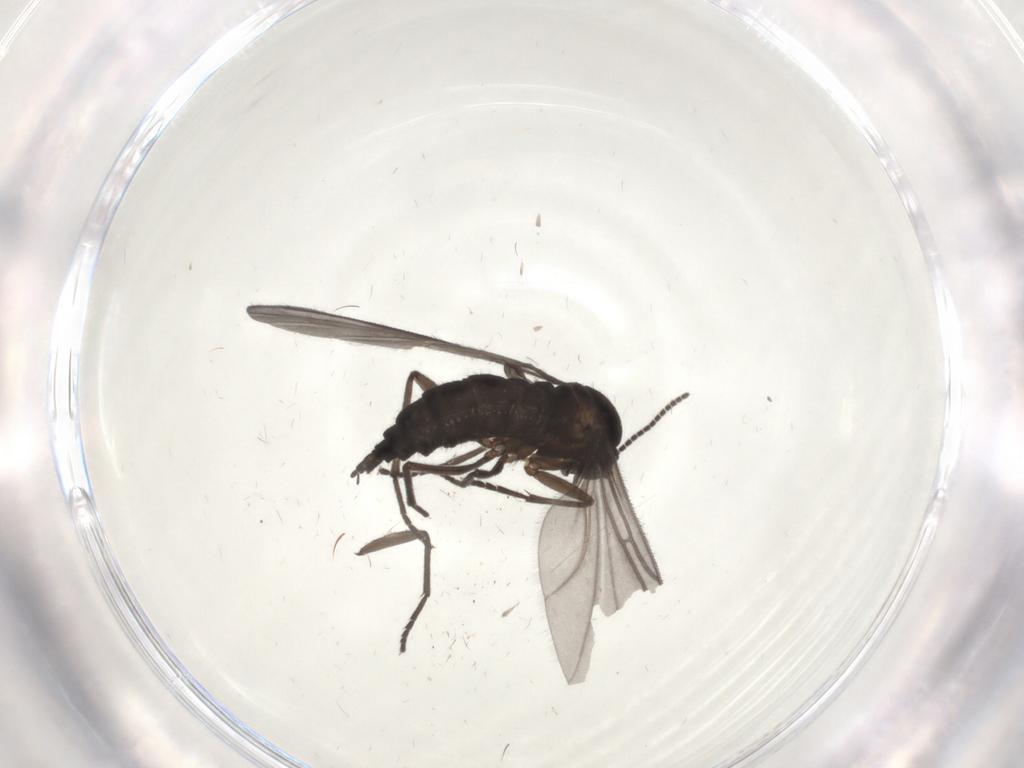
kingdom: Animalia
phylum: Arthropoda
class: Insecta
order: Diptera
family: Sciaridae
